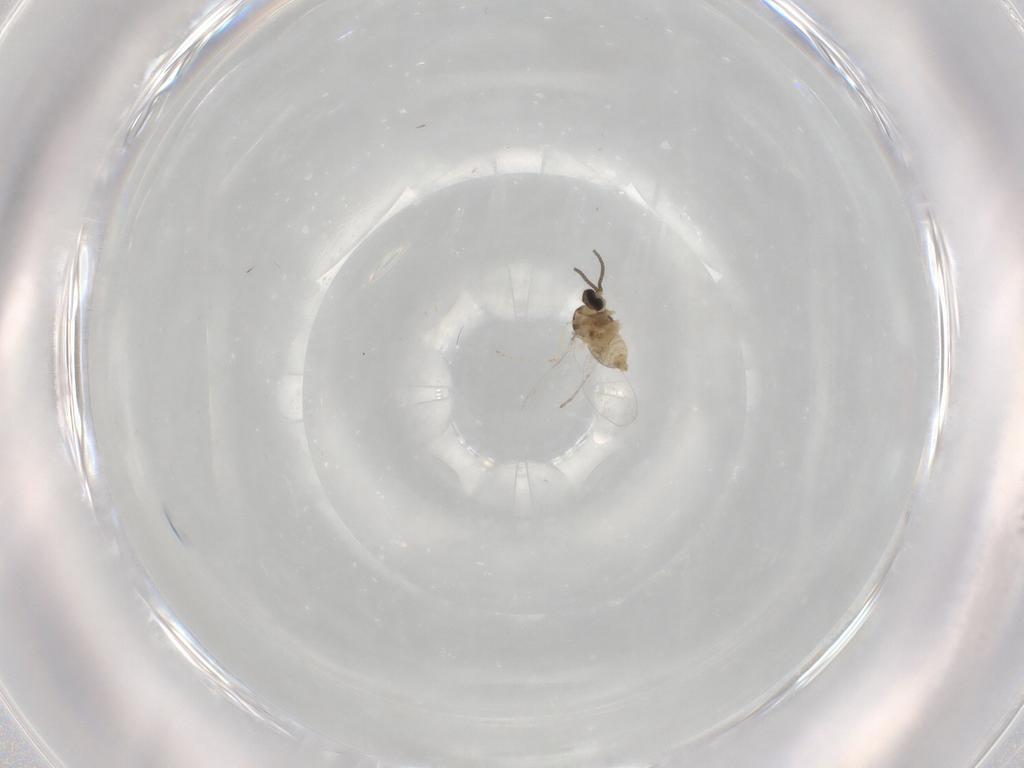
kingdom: Animalia
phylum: Arthropoda
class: Insecta
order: Diptera
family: Cecidomyiidae
